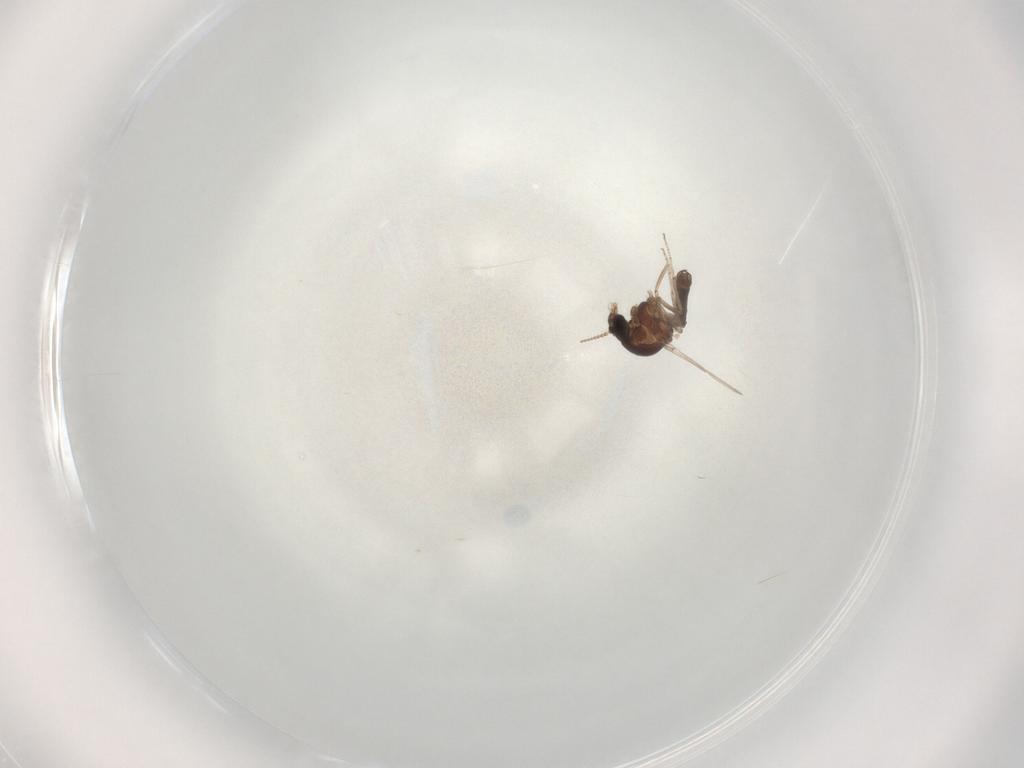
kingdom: Animalia
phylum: Arthropoda
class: Insecta
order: Diptera
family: Ceratopogonidae
